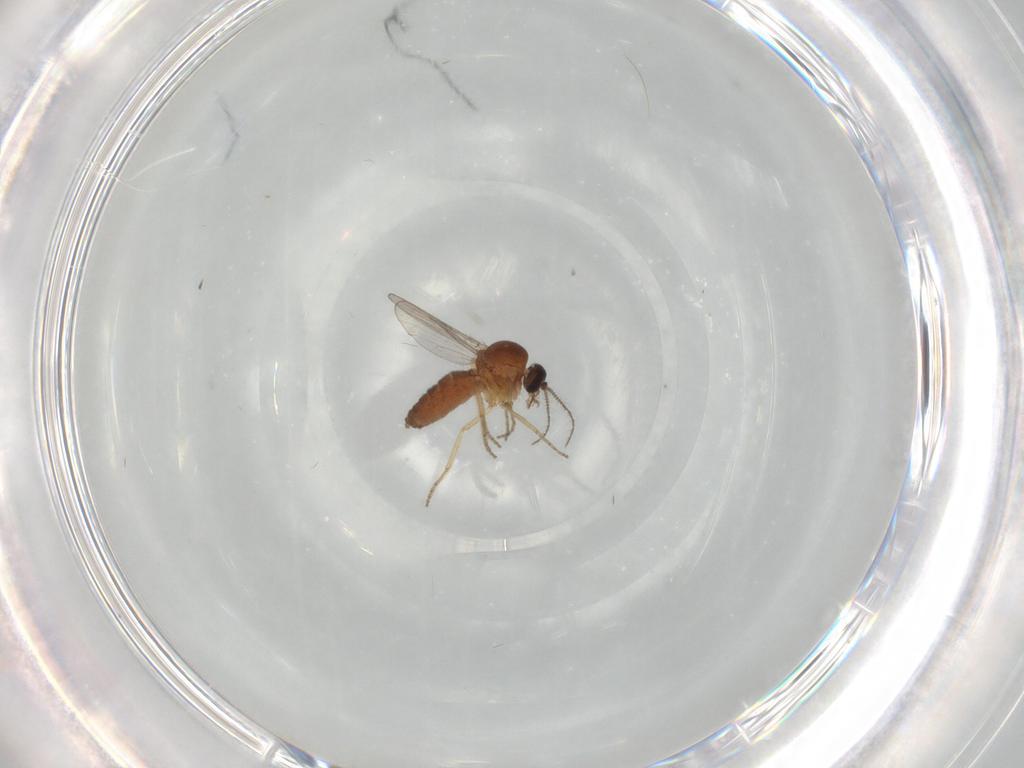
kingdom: Animalia
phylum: Arthropoda
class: Insecta
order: Diptera
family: Ceratopogonidae
